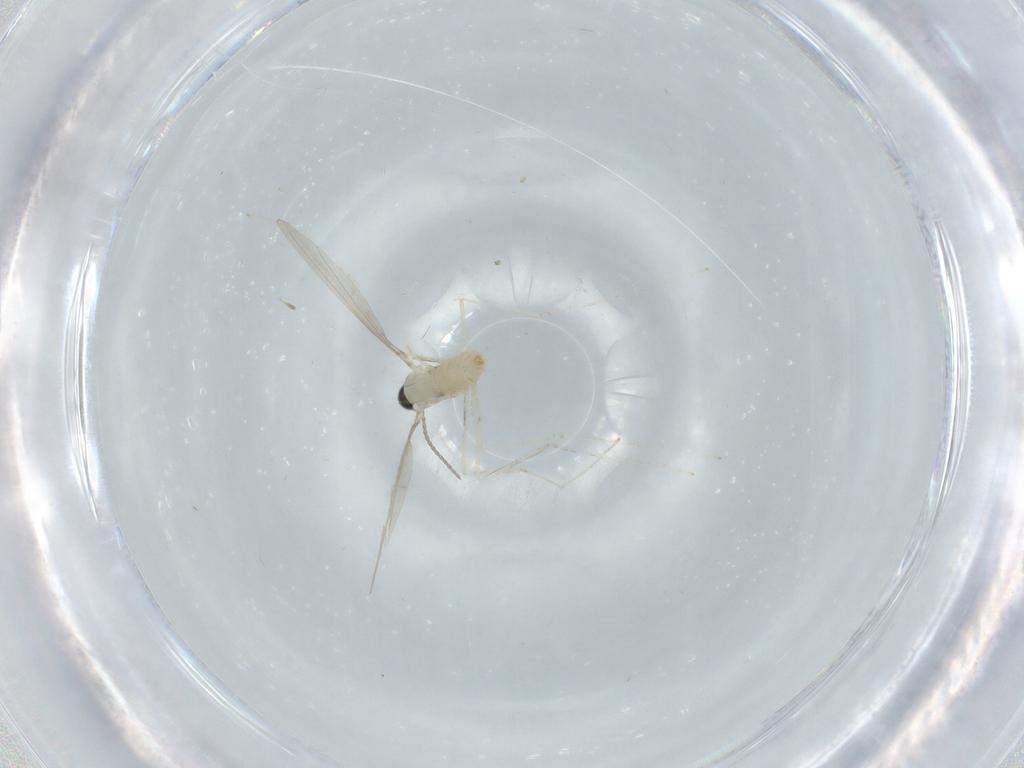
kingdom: Animalia
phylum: Arthropoda
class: Insecta
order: Diptera
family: Cecidomyiidae
